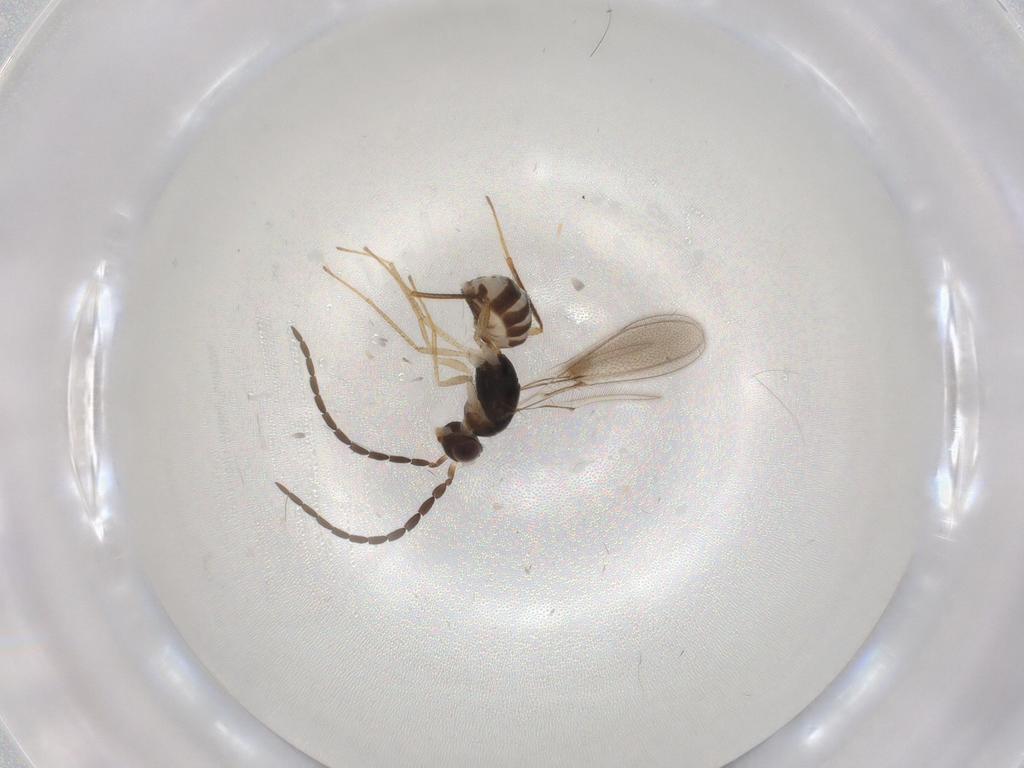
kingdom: Animalia
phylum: Arthropoda
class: Insecta
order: Hymenoptera
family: Mymaridae
